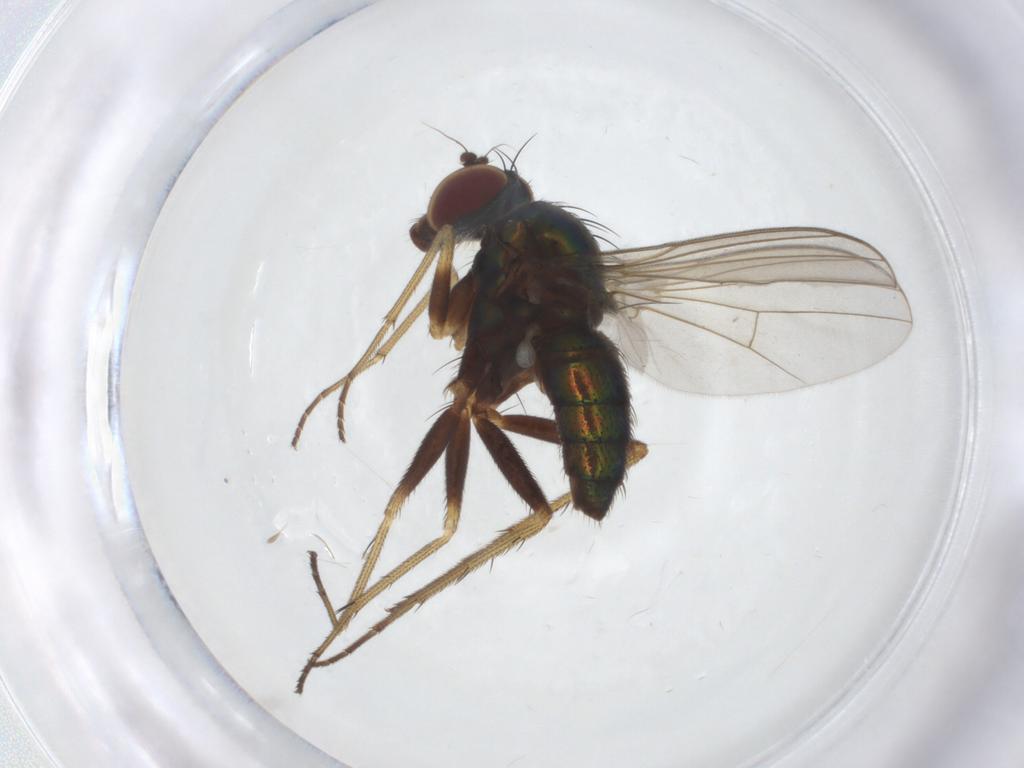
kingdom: Animalia
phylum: Arthropoda
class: Insecta
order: Diptera
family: Dolichopodidae
